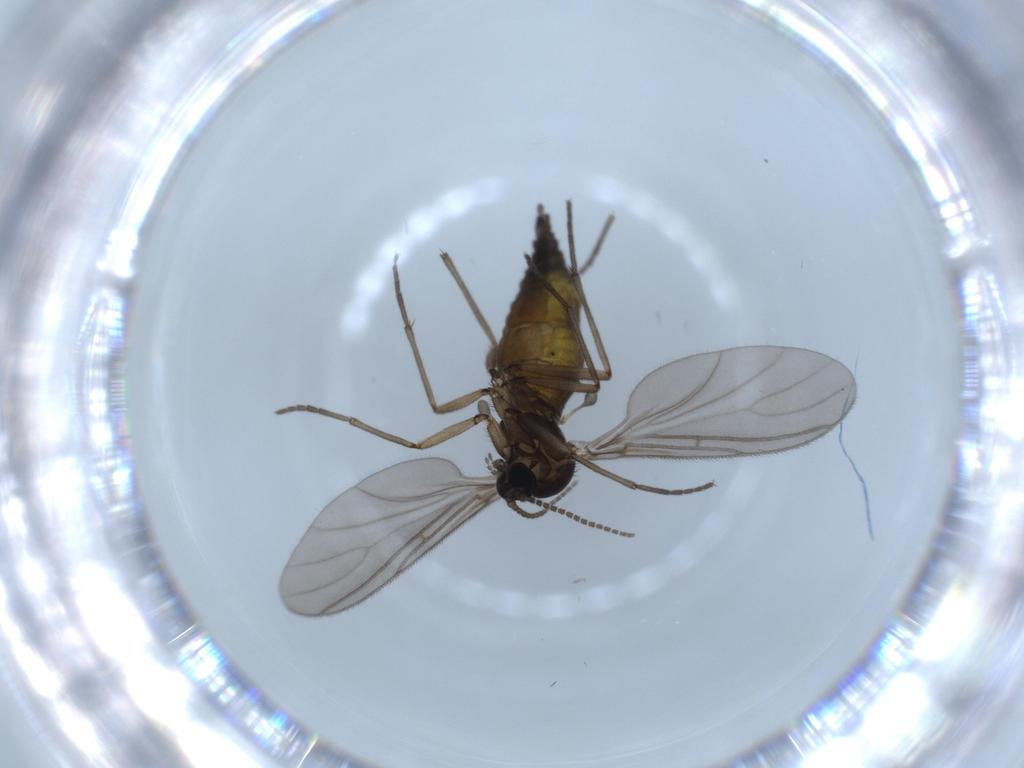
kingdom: Animalia
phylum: Arthropoda
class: Insecta
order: Diptera
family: Sciaridae
